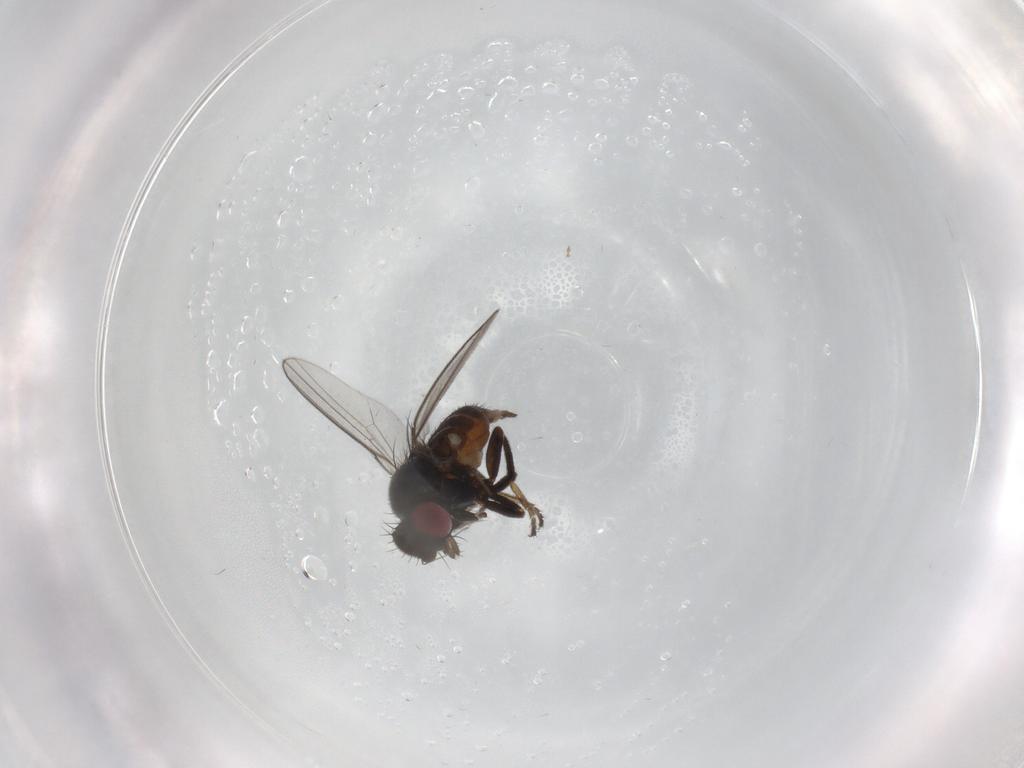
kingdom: Animalia
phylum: Arthropoda
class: Insecta
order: Diptera
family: Milichiidae
